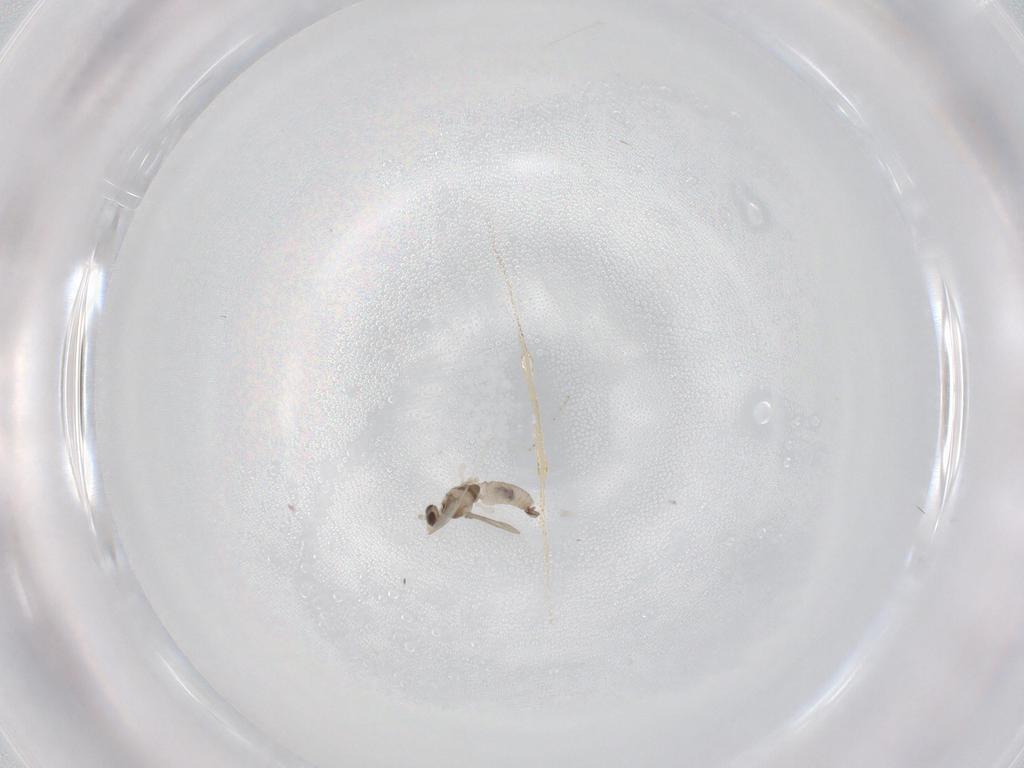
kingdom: Animalia
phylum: Arthropoda
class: Insecta
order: Diptera
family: Cecidomyiidae
